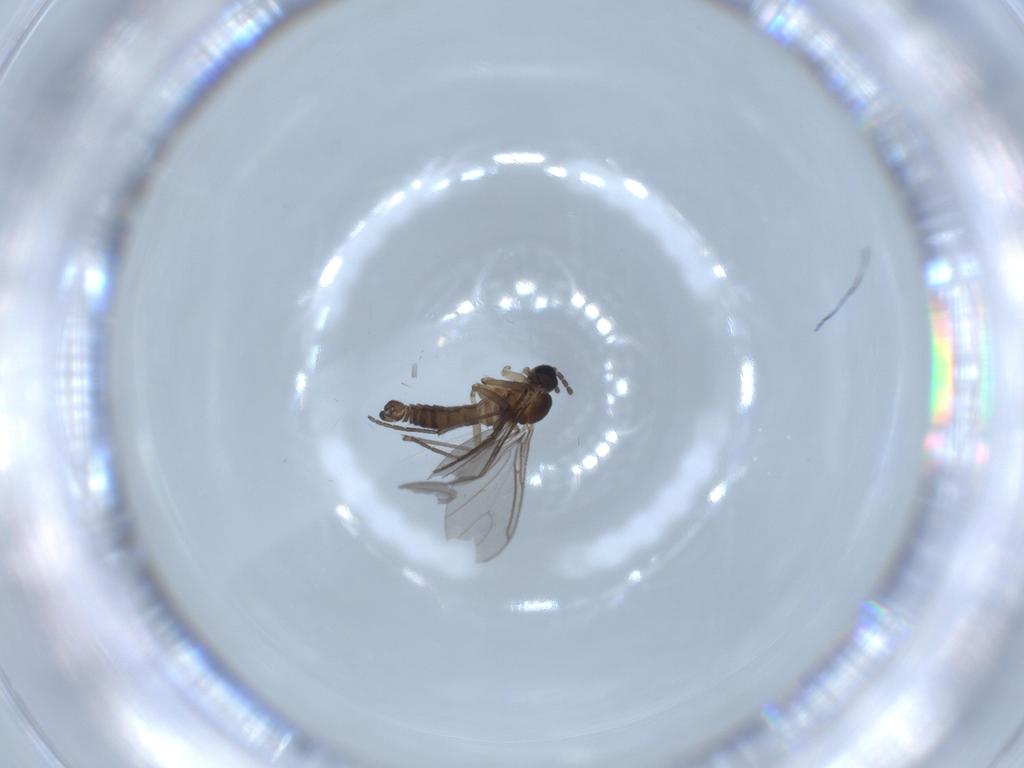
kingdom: Animalia
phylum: Arthropoda
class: Insecta
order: Diptera
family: Sciaridae
